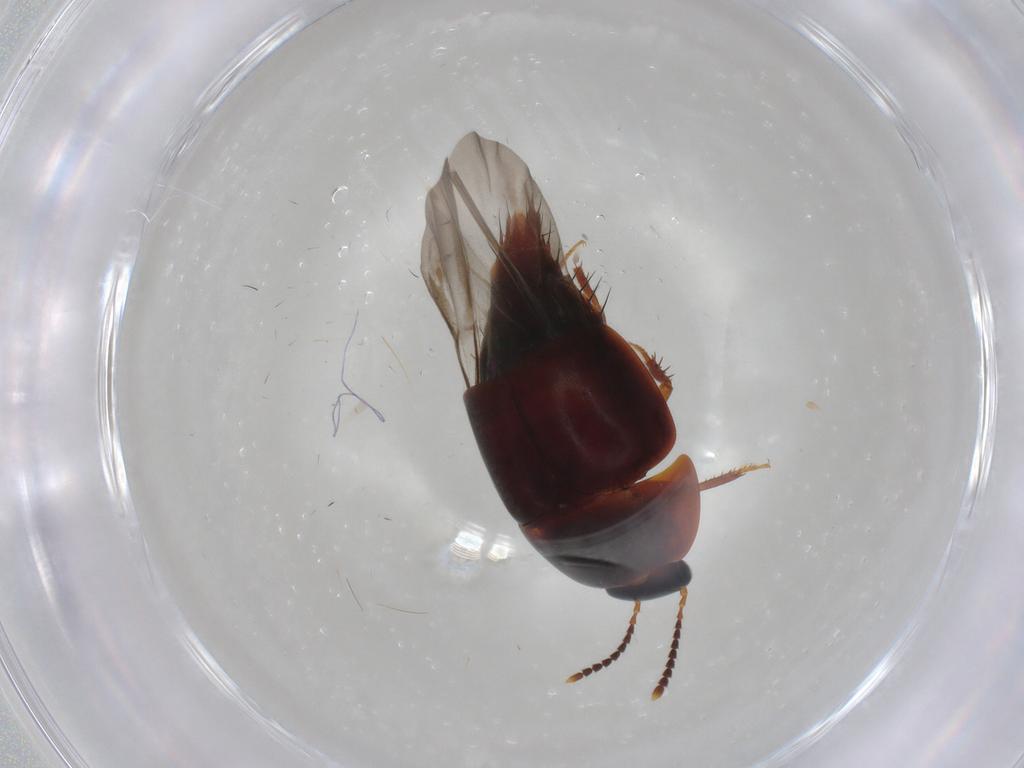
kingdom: Animalia
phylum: Arthropoda
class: Insecta
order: Coleoptera
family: Staphylinidae
